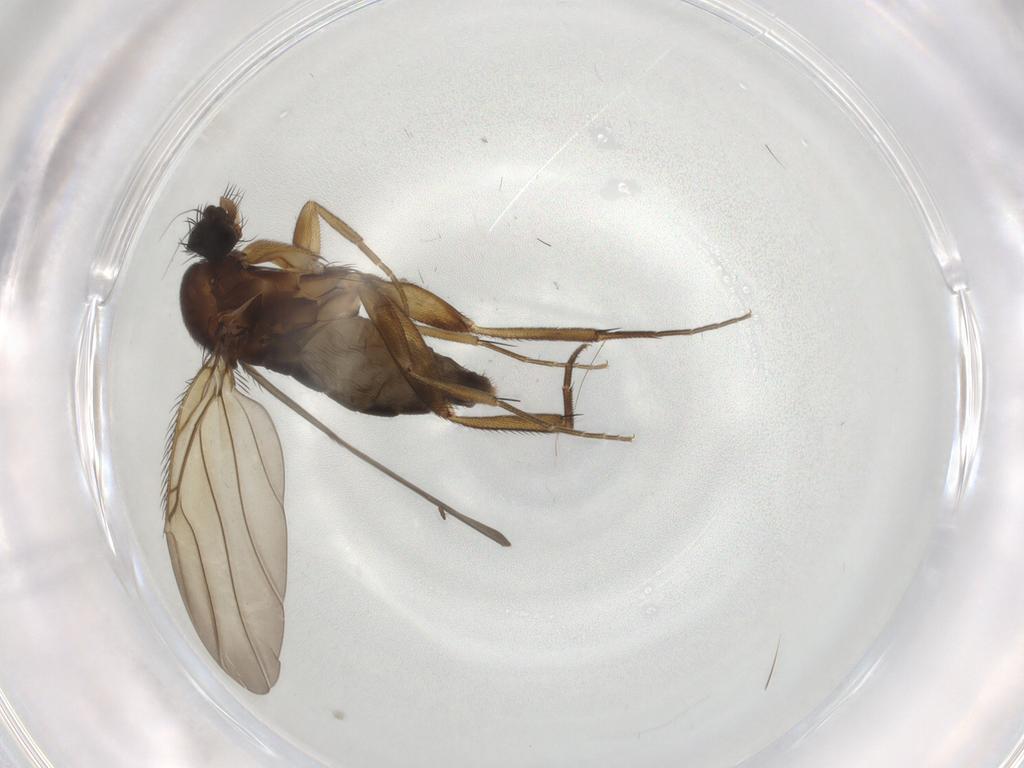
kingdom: Animalia
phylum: Arthropoda
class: Insecta
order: Diptera
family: Phoridae
